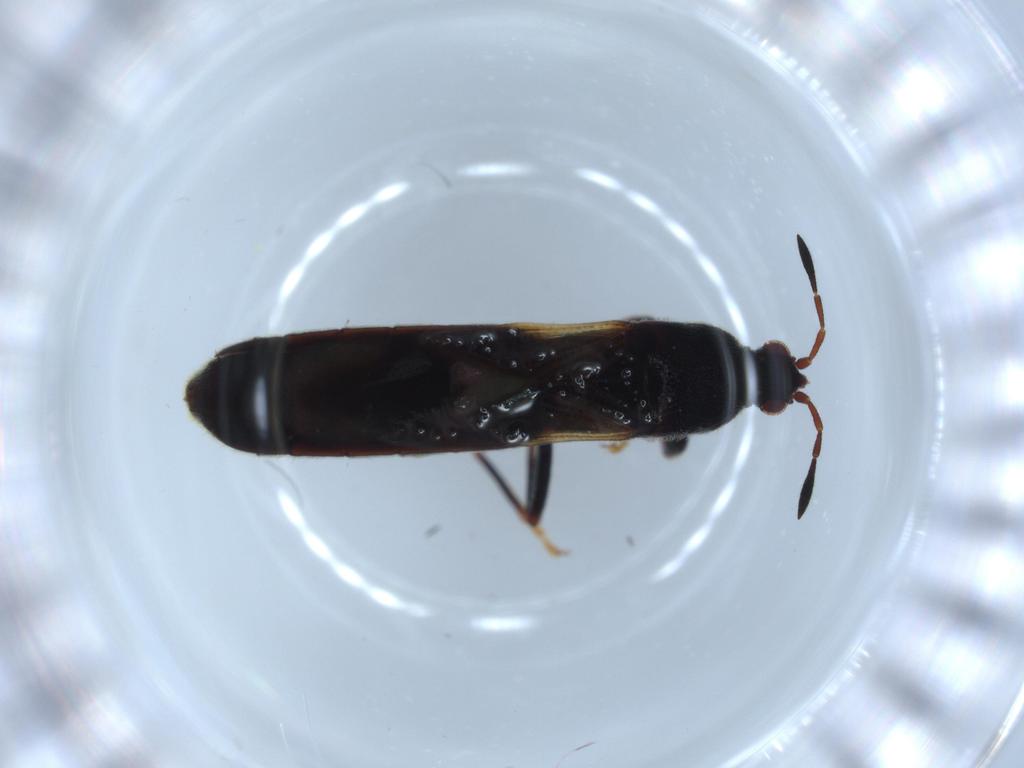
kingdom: Animalia
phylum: Arthropoda
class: Insecta
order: Hemiptera
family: Blissidae
